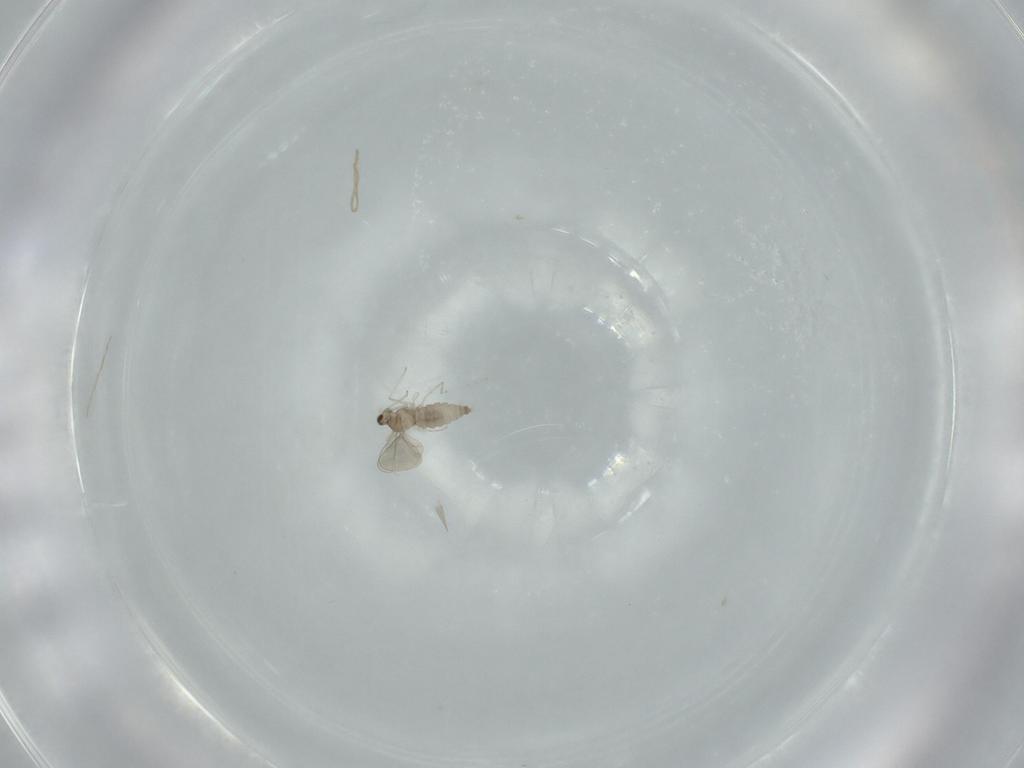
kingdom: Animalia
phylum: Arthropoda
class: Insecta
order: Diptera
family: Cecidomyiidae
